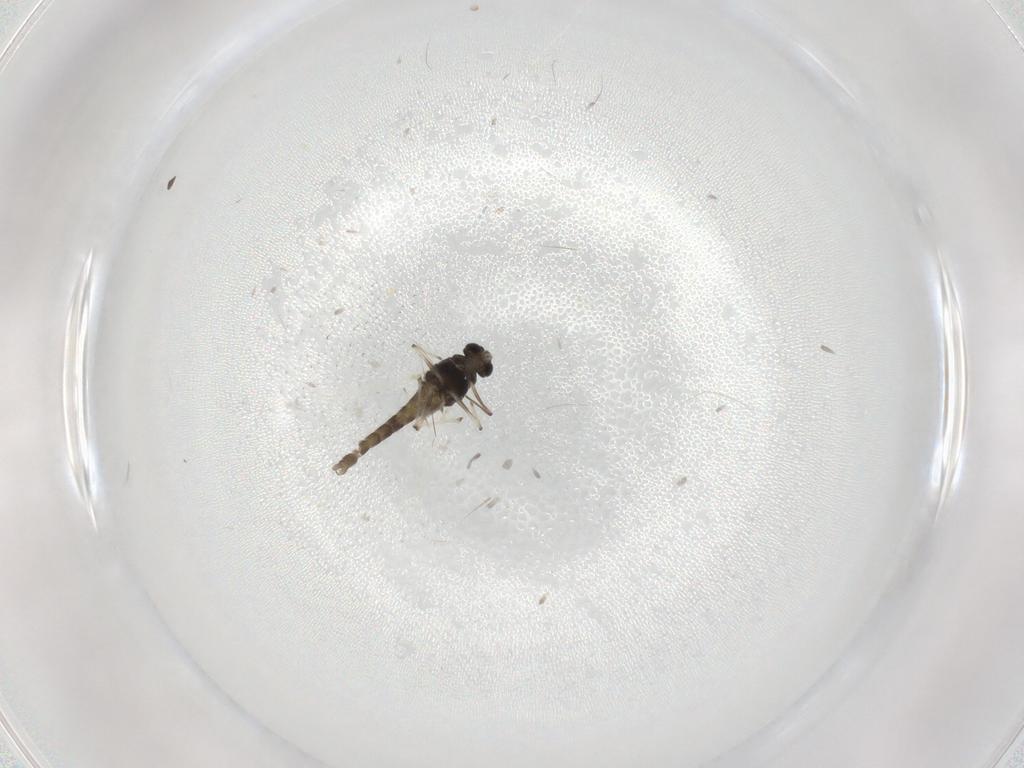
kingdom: Animalia
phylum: Arthropoda
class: Insecta
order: Diptera
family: Chironomidae
